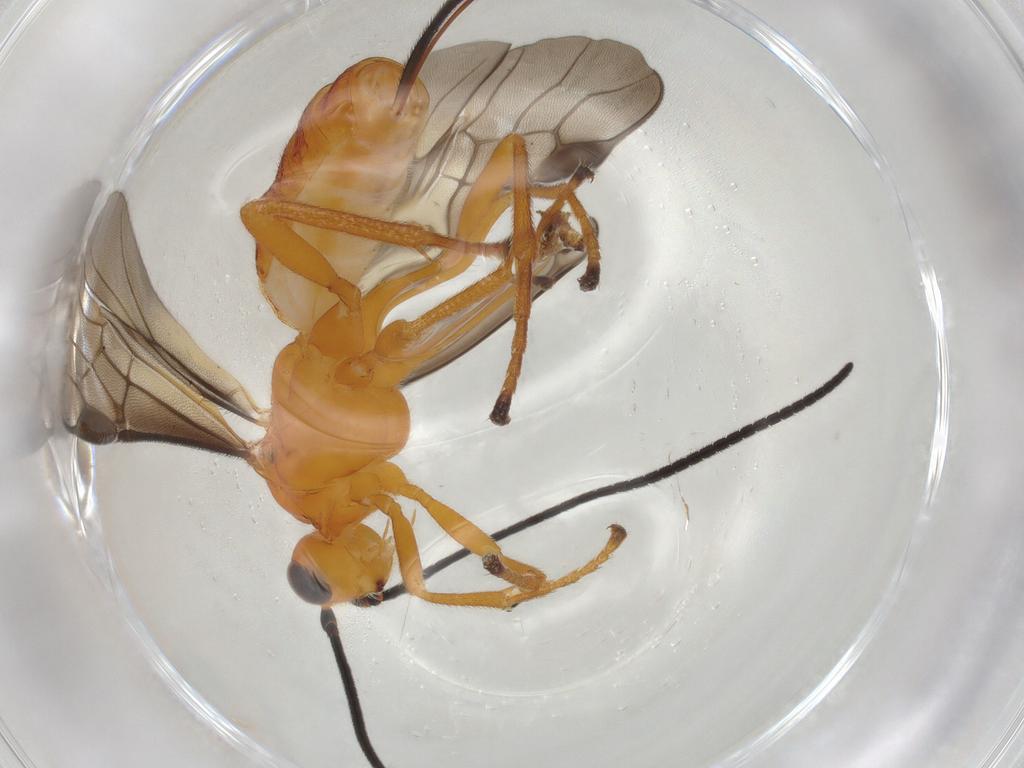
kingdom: Animalia
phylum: Arthropoda
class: Insecta
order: Hymenoptera
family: Braconidae
